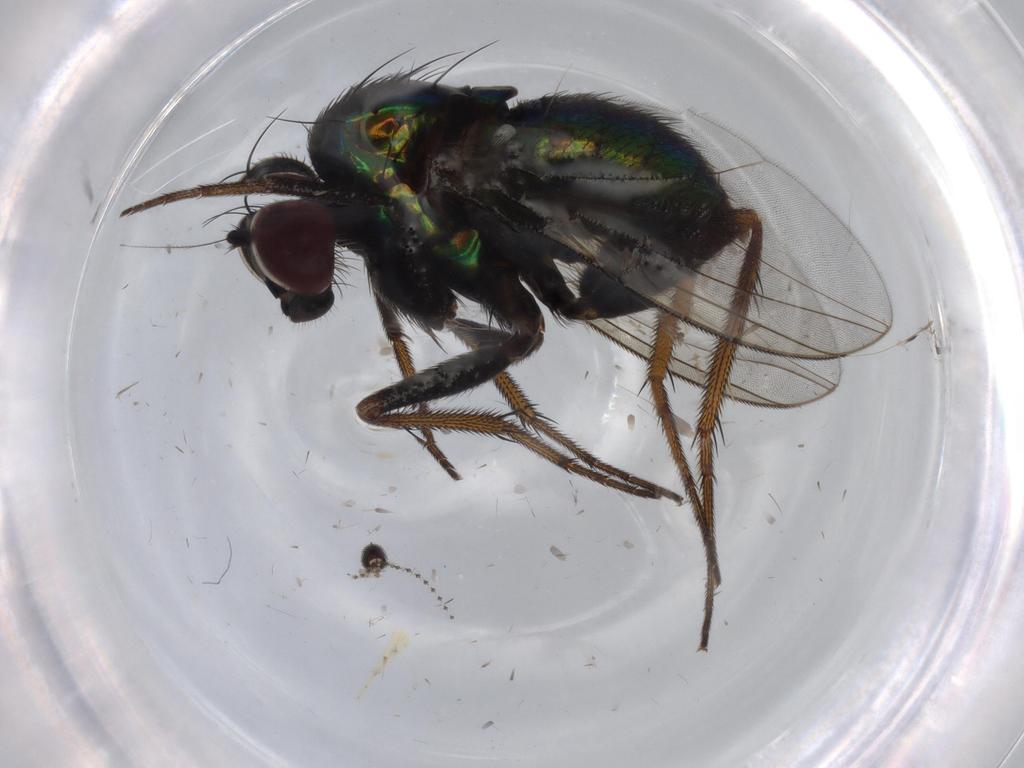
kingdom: Animalia
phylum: Arthropoda
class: Insecta
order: Diptera
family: Dolichopodidae
